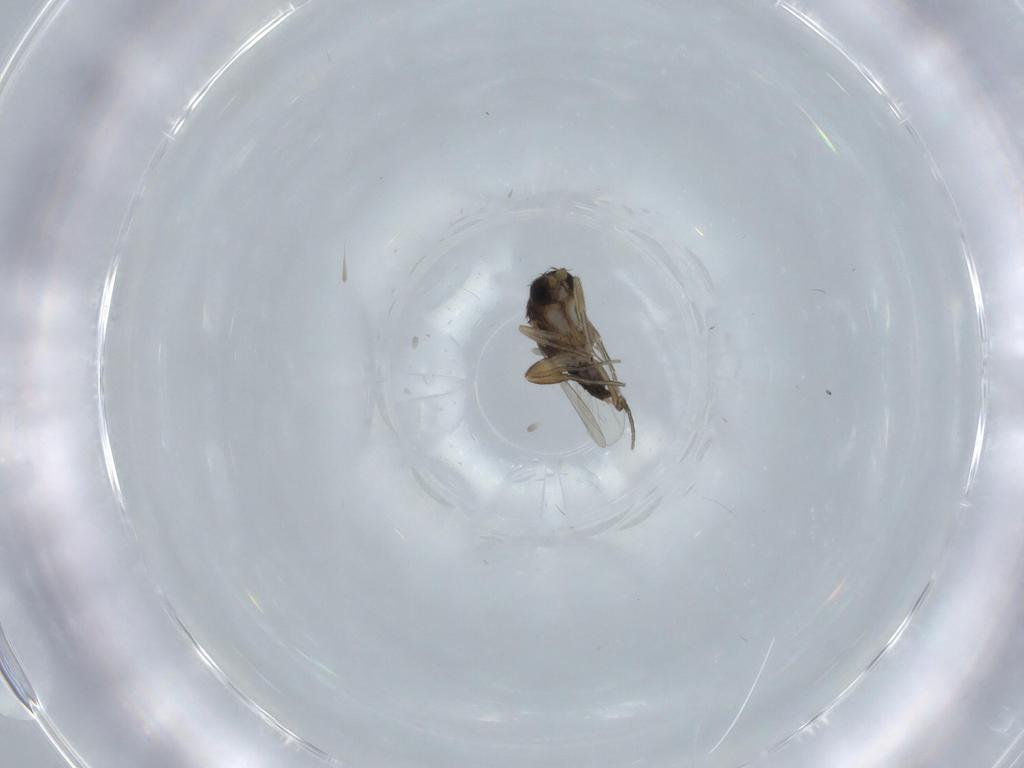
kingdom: Animalia
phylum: Arthropoda
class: Insecta
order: Diptera
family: Phoridae
